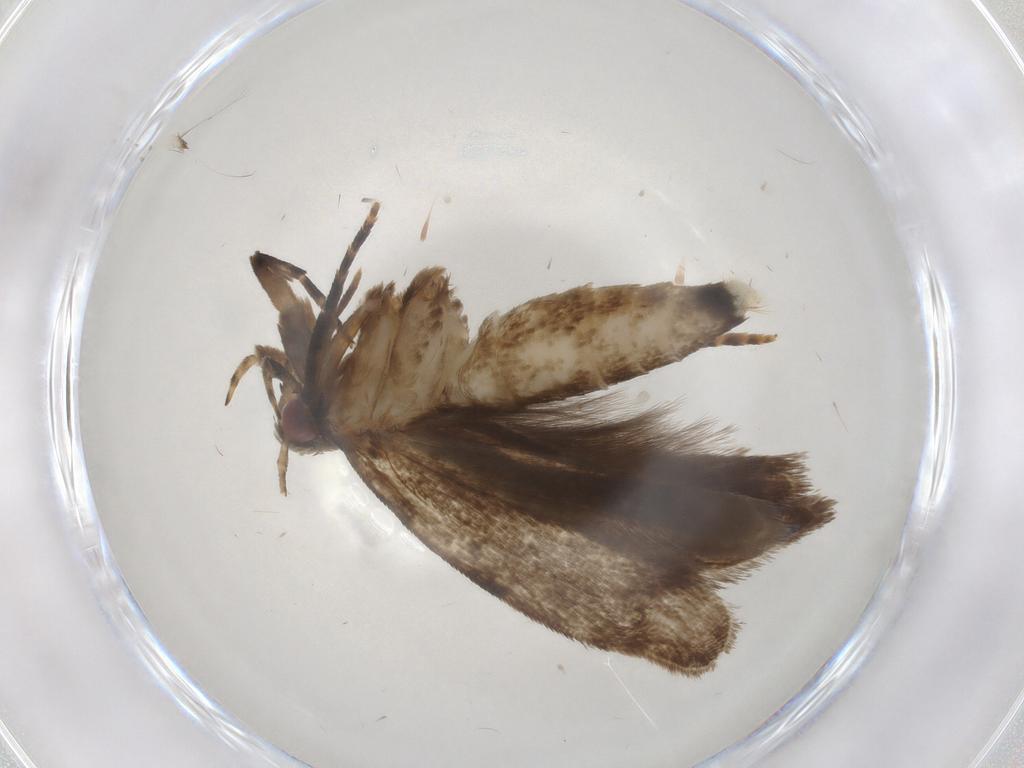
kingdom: Animalia
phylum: Arthropoda
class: Insecta
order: Lepidoptera
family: Gelechiidae
